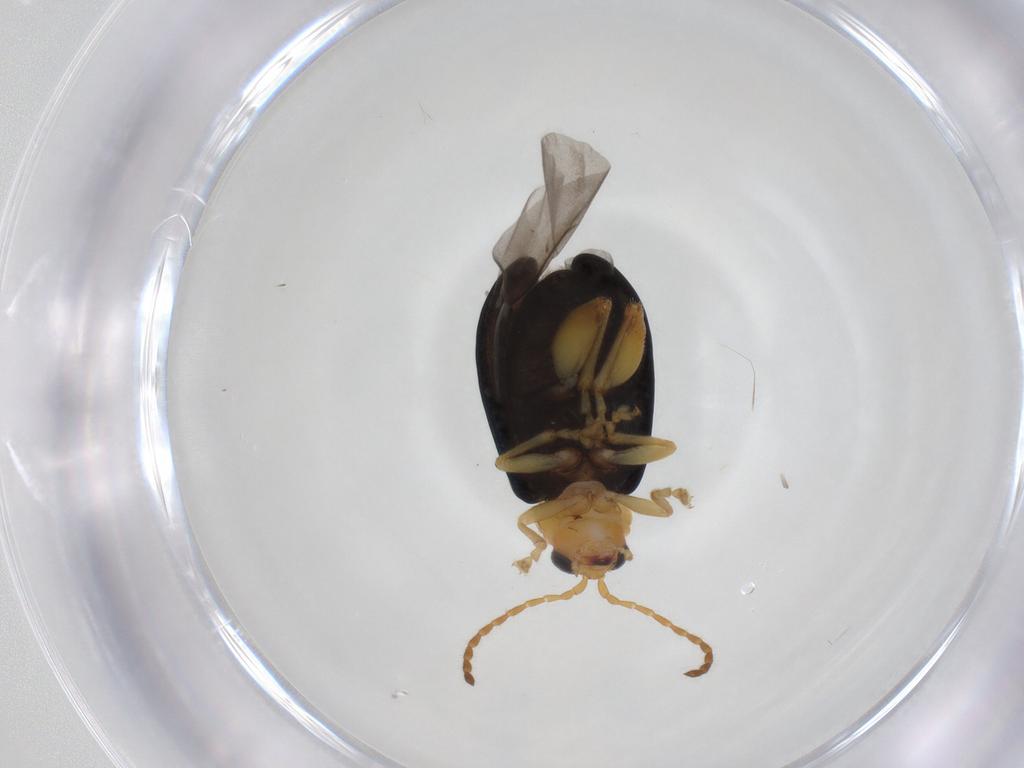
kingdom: Animalia
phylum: Arthropoda
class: Insecta
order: Coleoptera
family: Chrysomelidae
